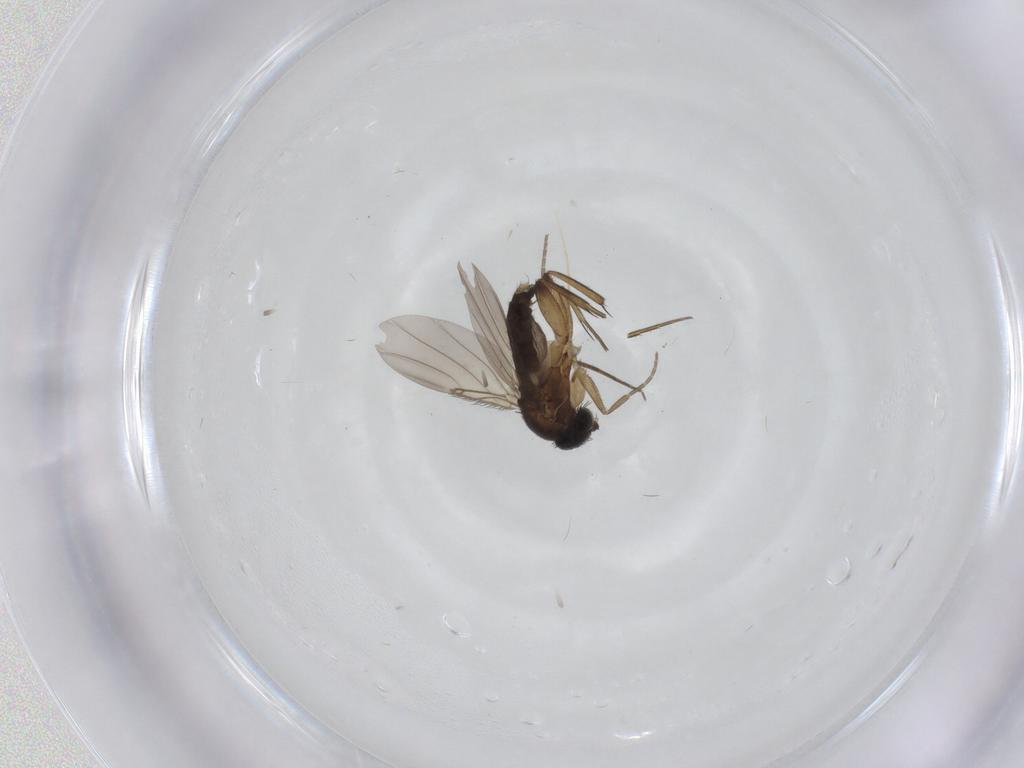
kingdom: Animalia
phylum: Arthropoda
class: Insecta
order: Diptera
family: Phoridae
